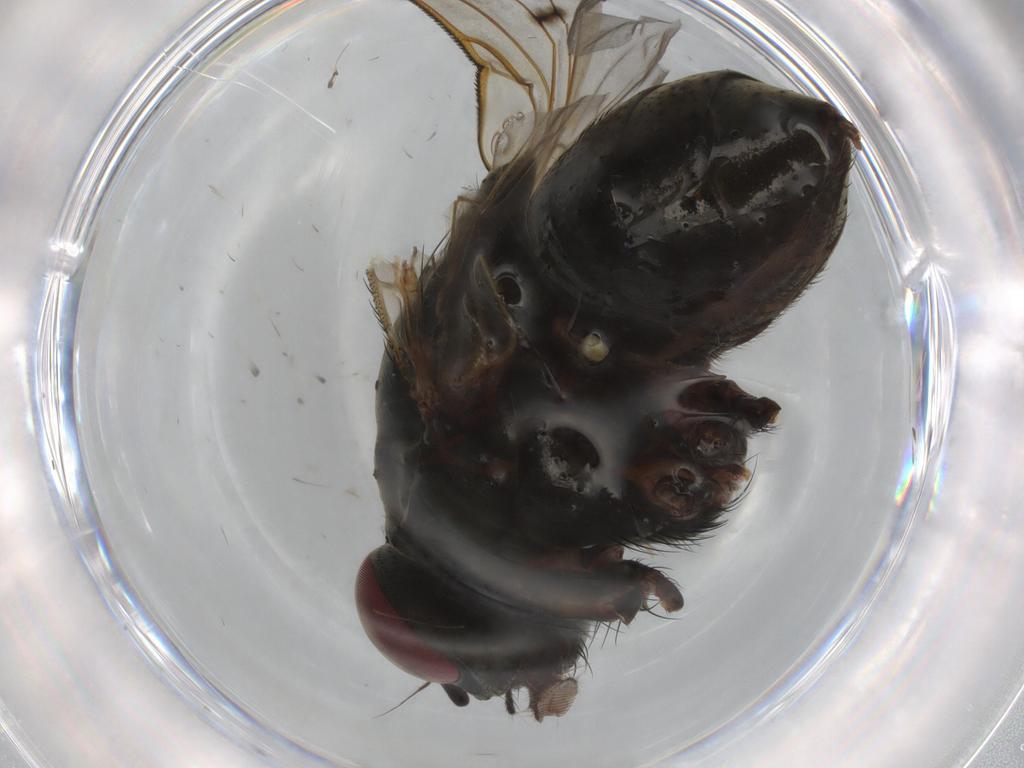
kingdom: Animalia
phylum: Arthropoda
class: Insecta
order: Diptera
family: Muscidae
